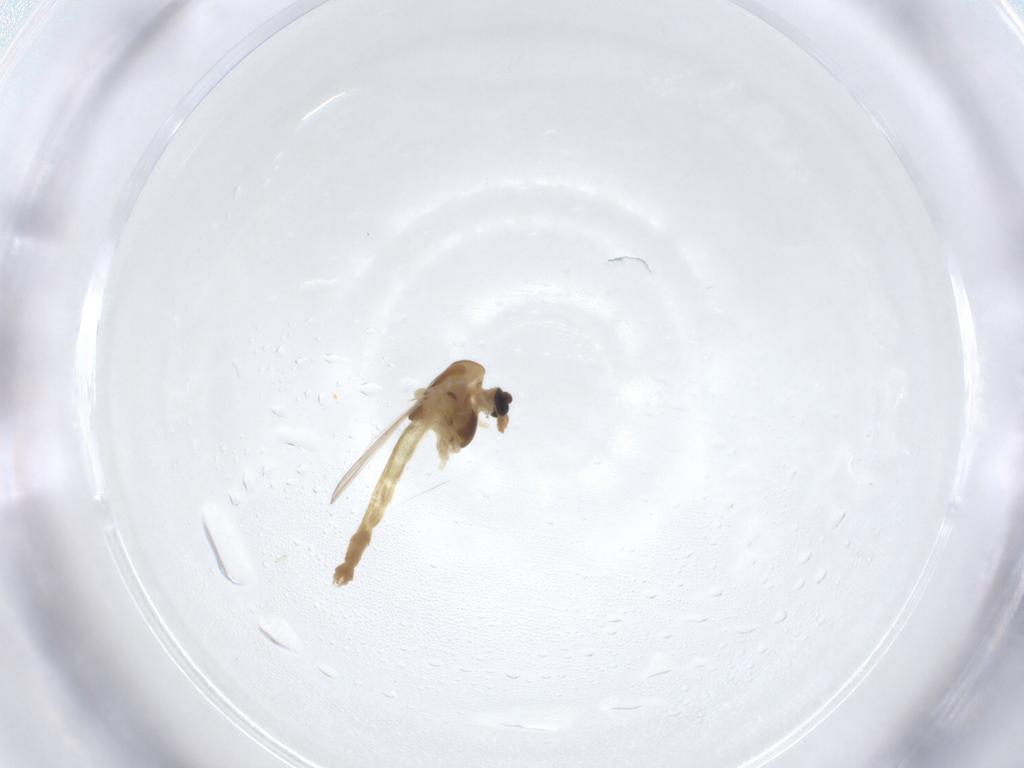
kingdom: Animalia
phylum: Arthropoda
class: Insecta
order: Diptera
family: Chironomidae
